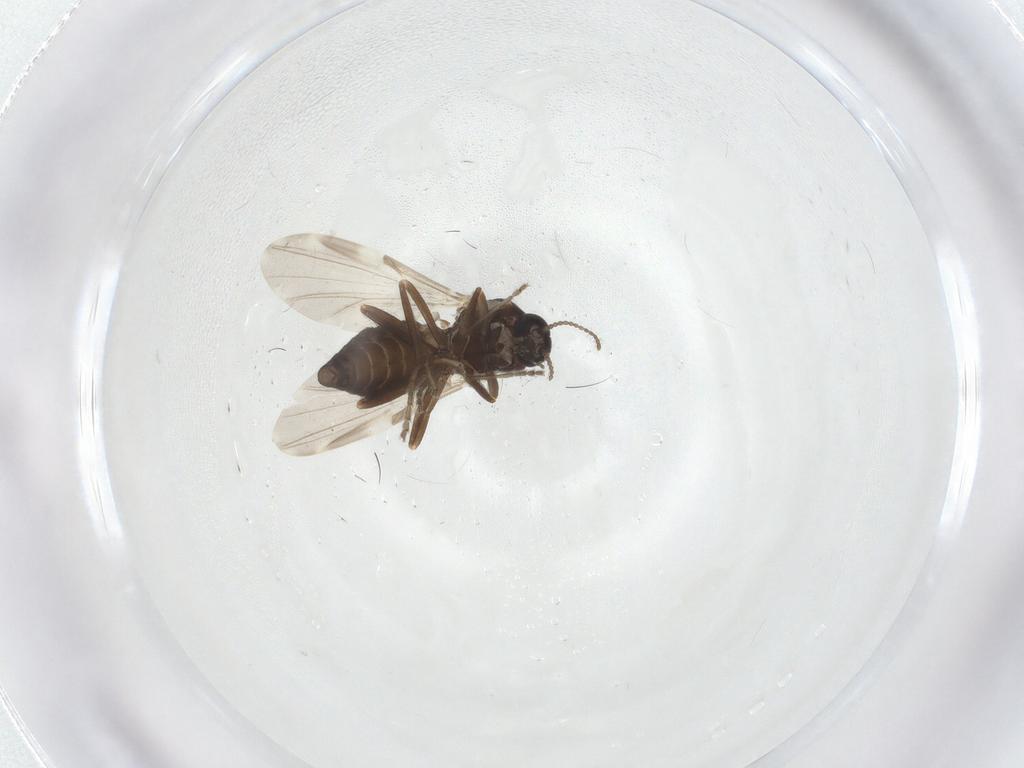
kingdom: Animalia
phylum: Arthropoda
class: Insecta
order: Diptera
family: Ceratopogonidae
